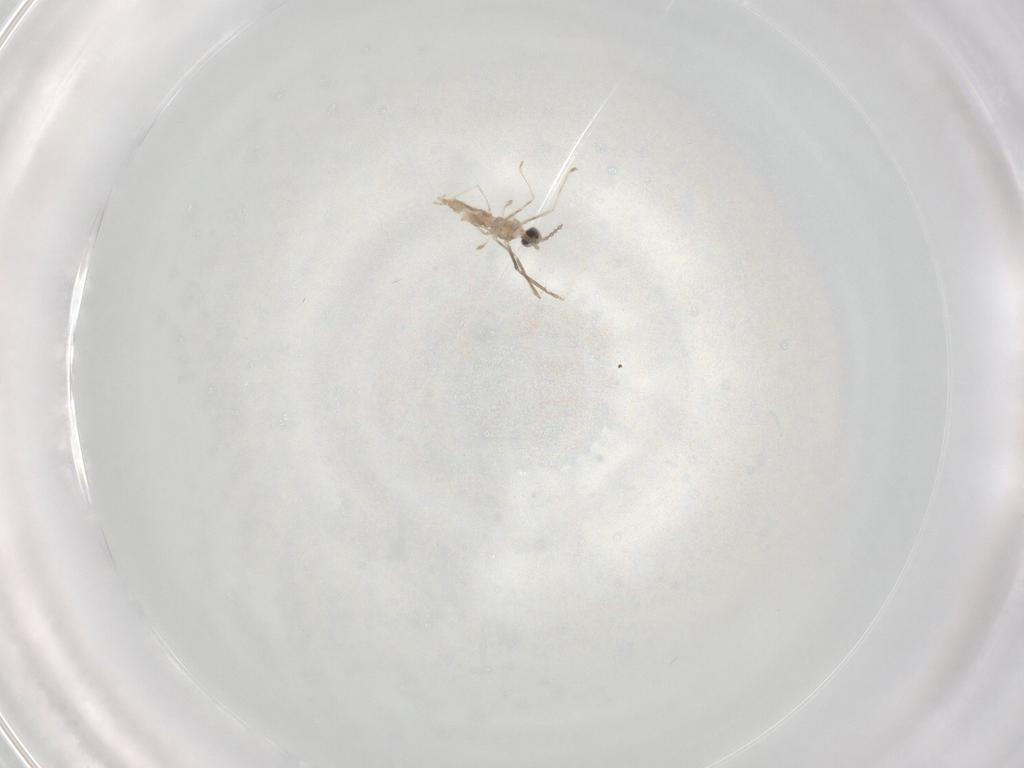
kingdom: Animalia
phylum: Arthropoda
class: Insecta
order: Diptera
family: Cecidomyiidae
